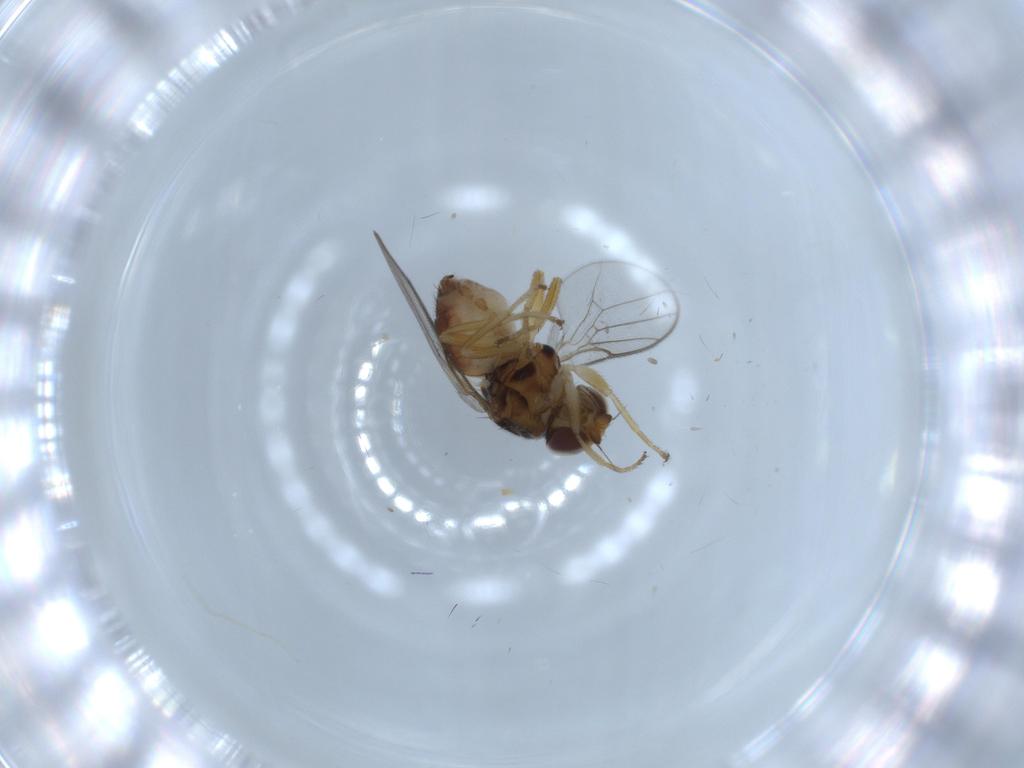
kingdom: Animalia
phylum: Arthropoda
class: Insecta
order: Diptera
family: Chloropidae
